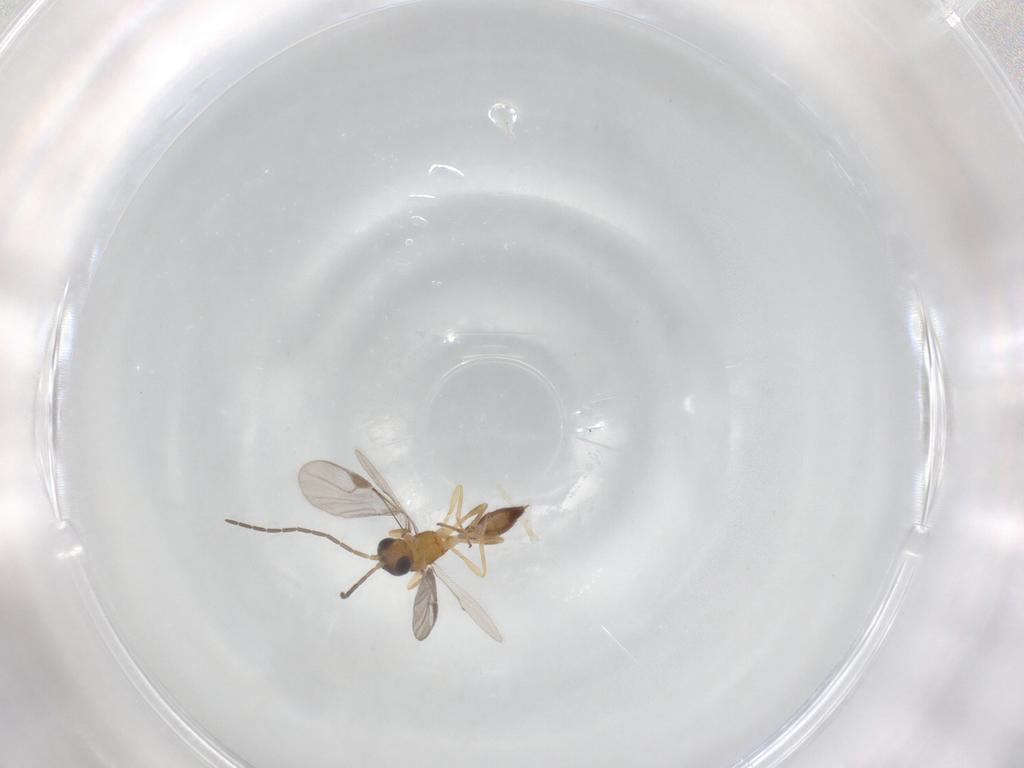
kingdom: Animalia
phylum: Arthropoda
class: Insecta
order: Hymenoptera
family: Braconidae
